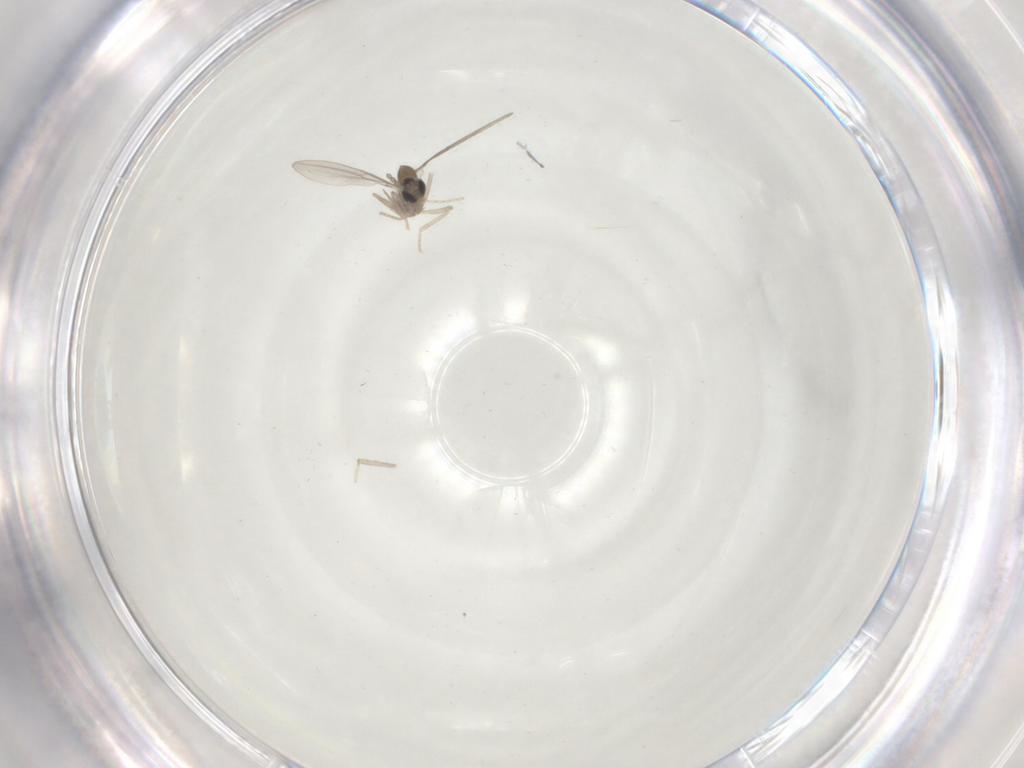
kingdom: Animalia
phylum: Arthropoda
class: Insecta
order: Diptera
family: Cecidomyiidae
